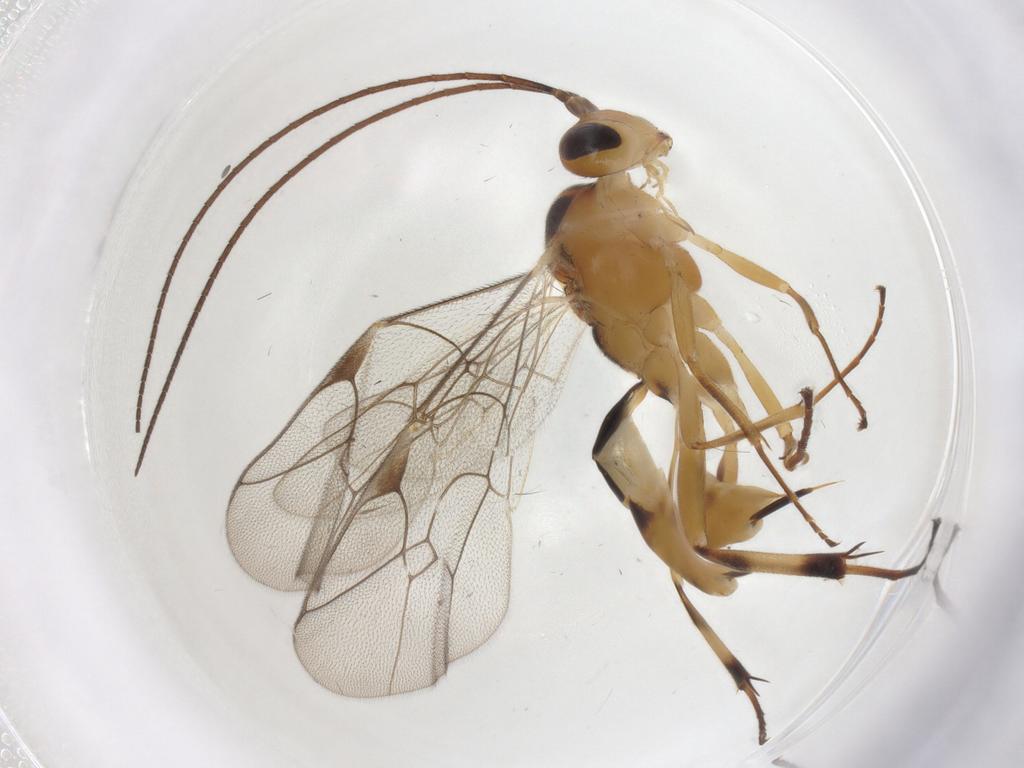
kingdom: Animalia
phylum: Arthropoda
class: Insecta
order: Hymenoptera
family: Ichneumonidae
